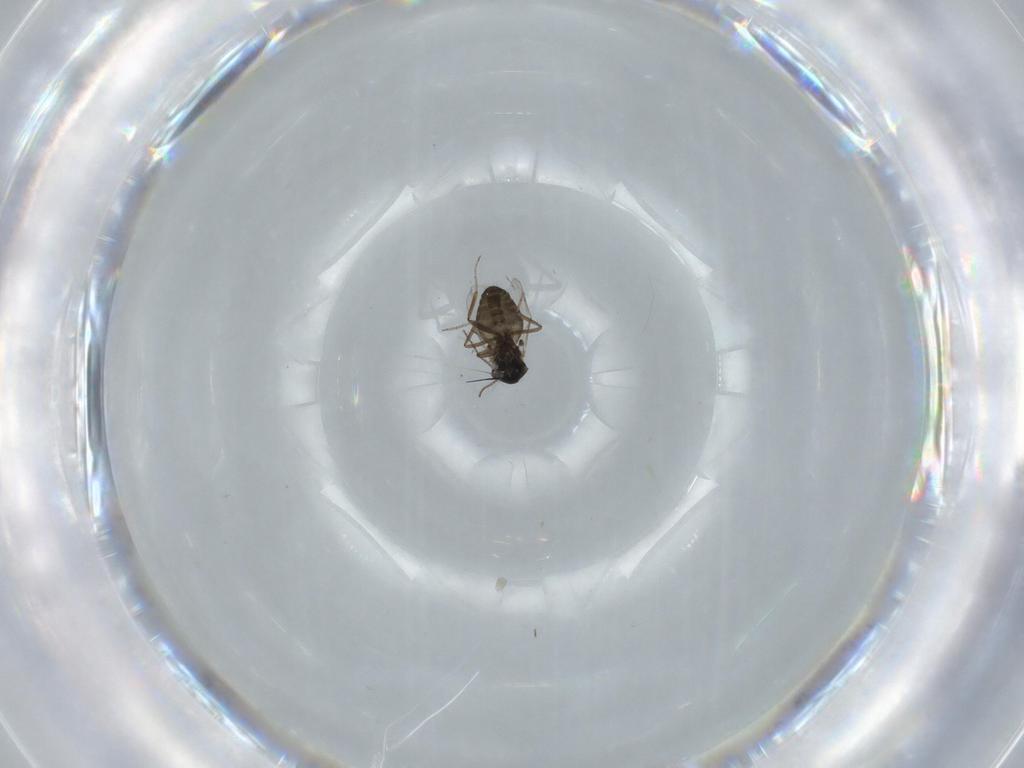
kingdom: Animalia
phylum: Arthropoda
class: Insecta
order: Diptera
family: Ceratopogonidae
